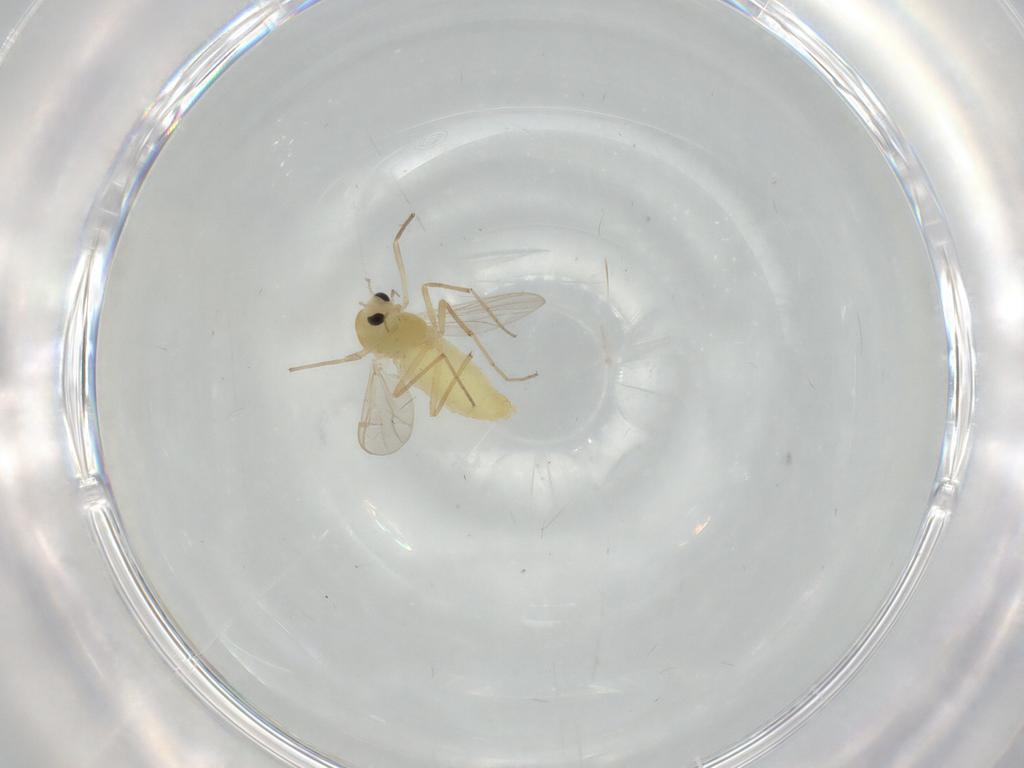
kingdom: Animalia
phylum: Arthropoda
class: Insecta
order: Diptera
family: Chironomidae
